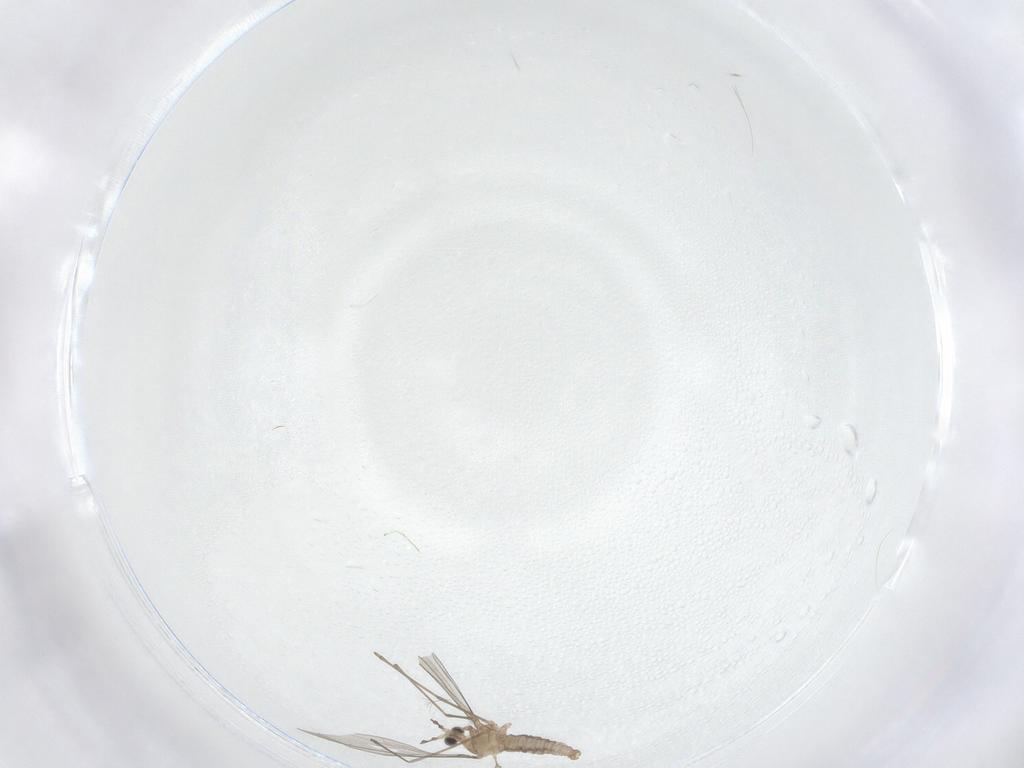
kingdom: Animalia
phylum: Arthropoda
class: Insecta
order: Diptera
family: Cecidomyiidae
